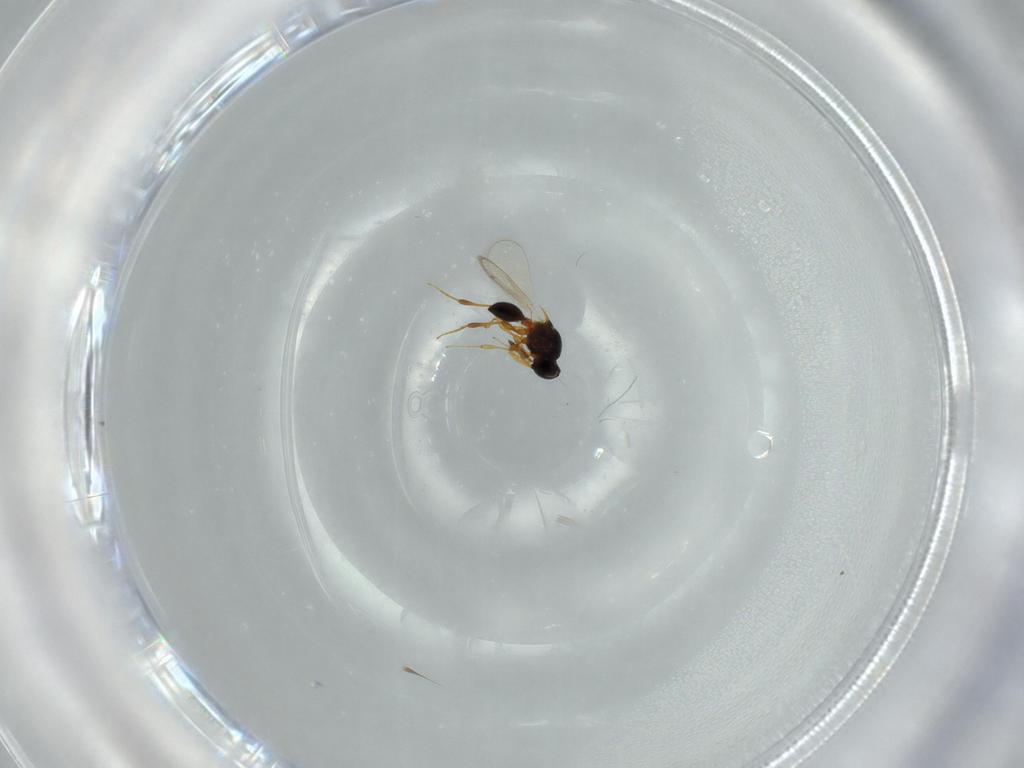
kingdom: Animalia
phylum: Arthropoda
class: Insecta
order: Hymenoptera
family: Platygastridae
